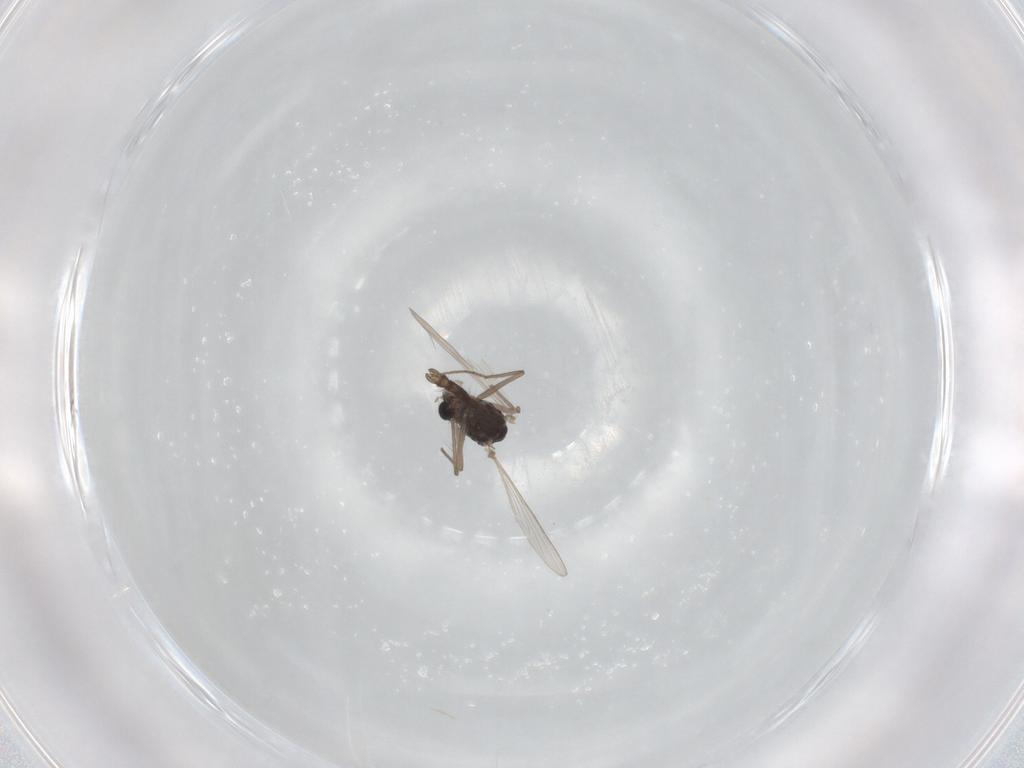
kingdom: Animalia
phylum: Arthropoda
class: Insecta
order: Diptera
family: Chironomidae
